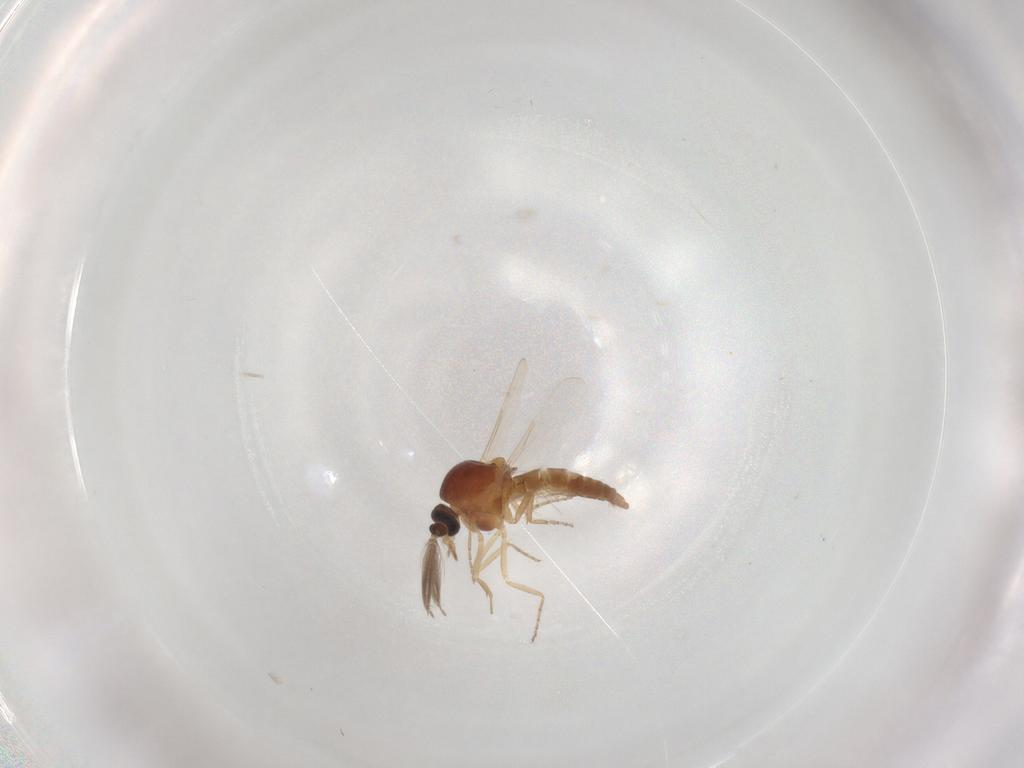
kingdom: Animalia
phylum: Arthropoda
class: Insecta
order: Diptera
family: Ceratopogonidae
